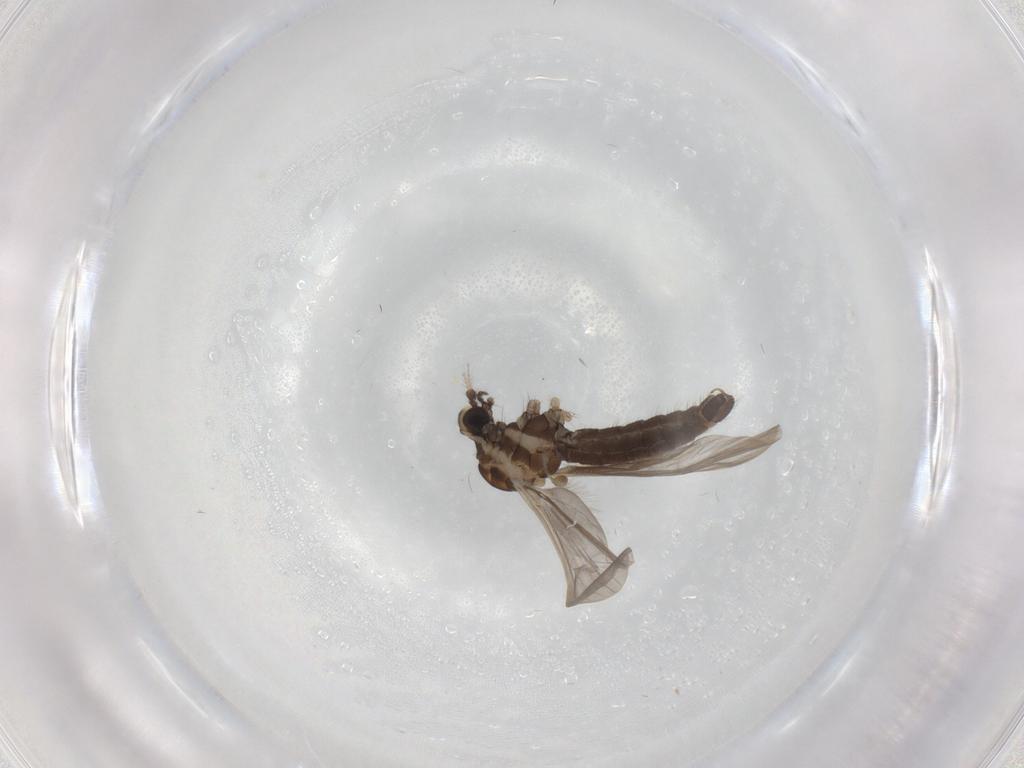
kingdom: Animalia
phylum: Arthropoda
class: Insecta
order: Diptera
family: Limoniidae
